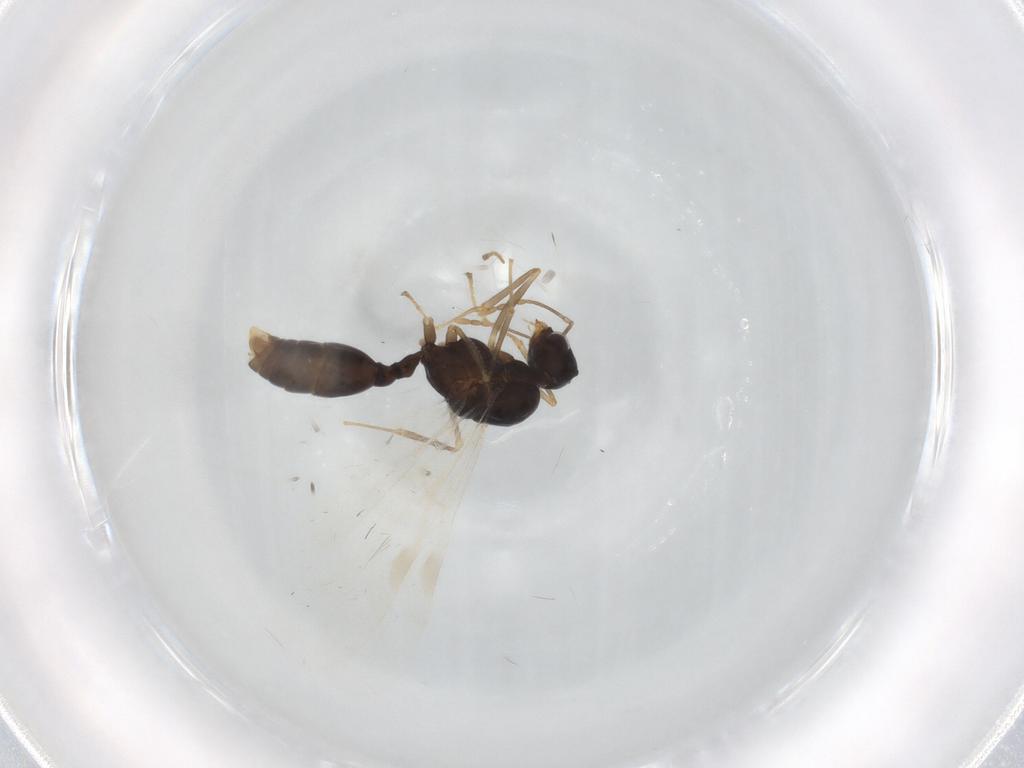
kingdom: Animalia
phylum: Arthropoda
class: Insecta
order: Hymenoptera
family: Formicidae
